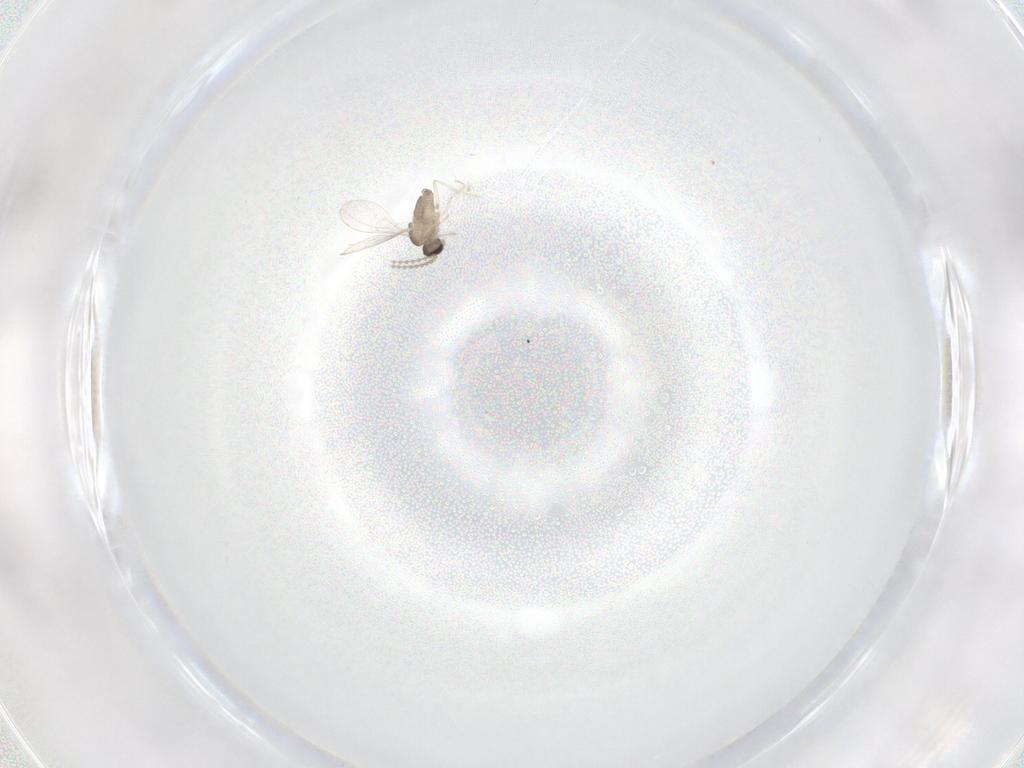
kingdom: Animalia
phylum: Arthropoda
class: Insecta
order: Diptera
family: Cecidomyiidae
